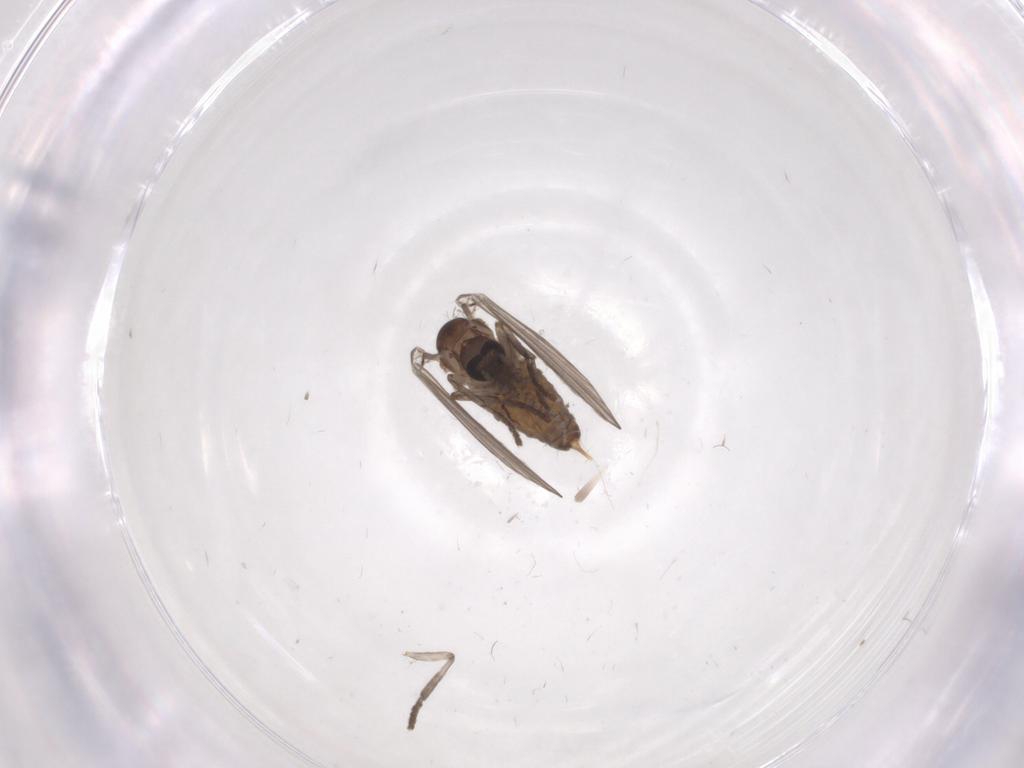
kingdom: Animalia
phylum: Arthropoda
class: Insecta
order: Diptera
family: Psychodidae
